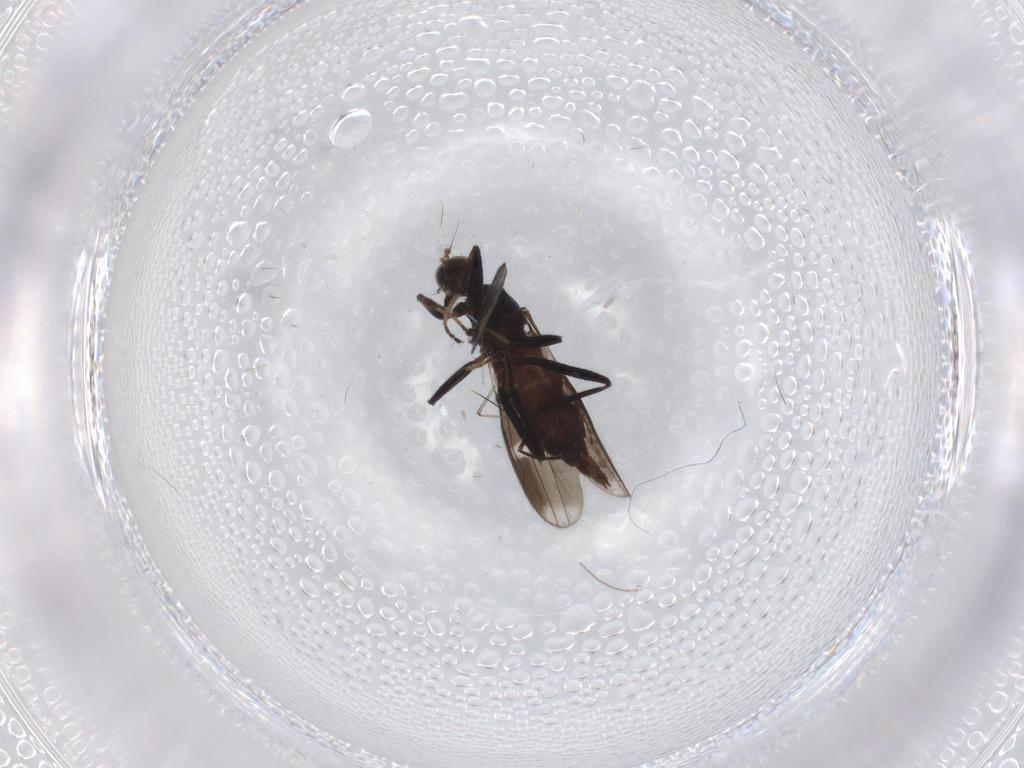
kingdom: Animalia
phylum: Arthropoda
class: Insecta
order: Diptera
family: Hybotidae
